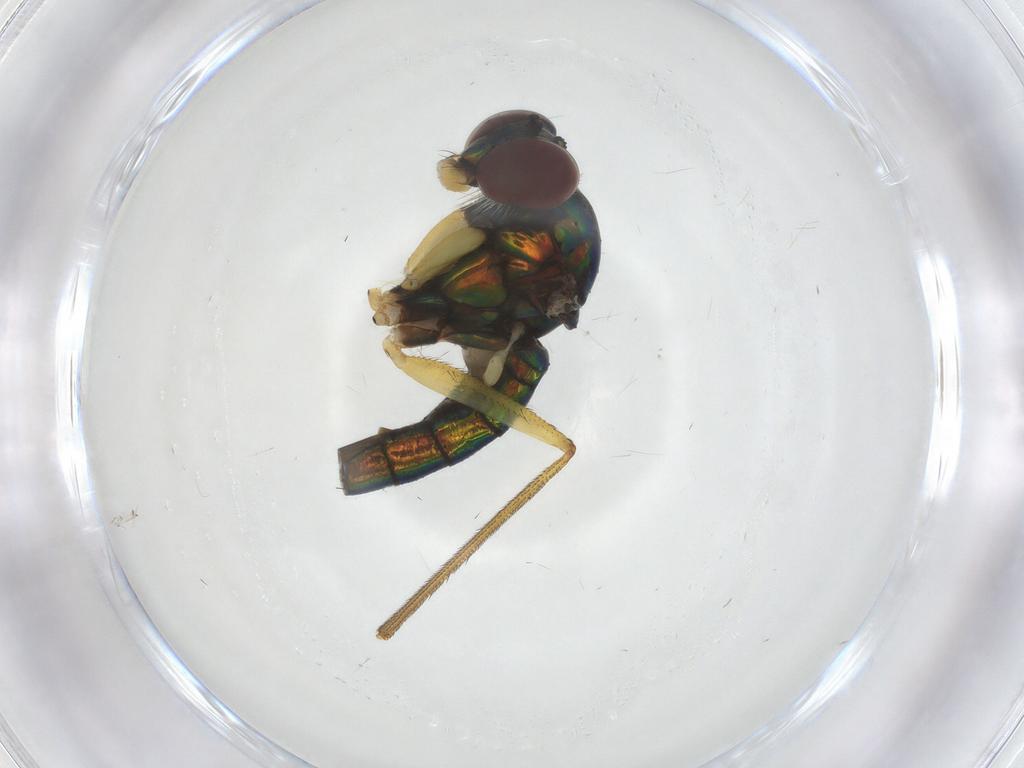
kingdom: Animalia
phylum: Arthropoda
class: Insecta
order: Diptera
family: Dolichopodidae
